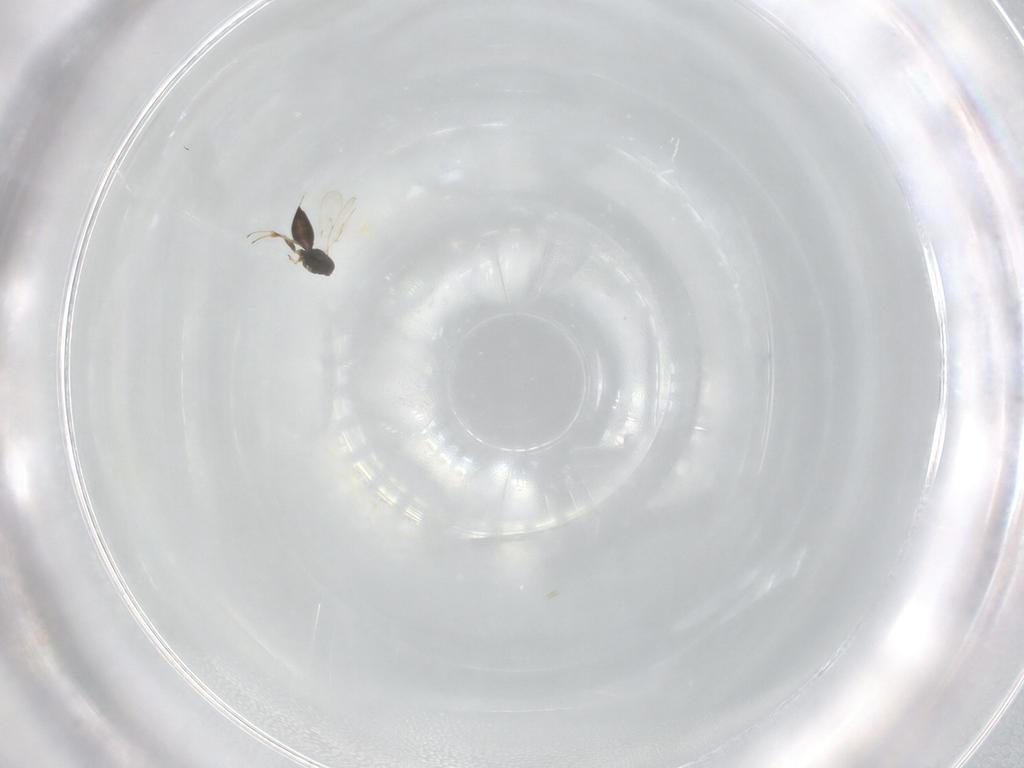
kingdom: Animalia
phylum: Arthropoda
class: Insecta
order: Hymenoptera
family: Scelionidae
